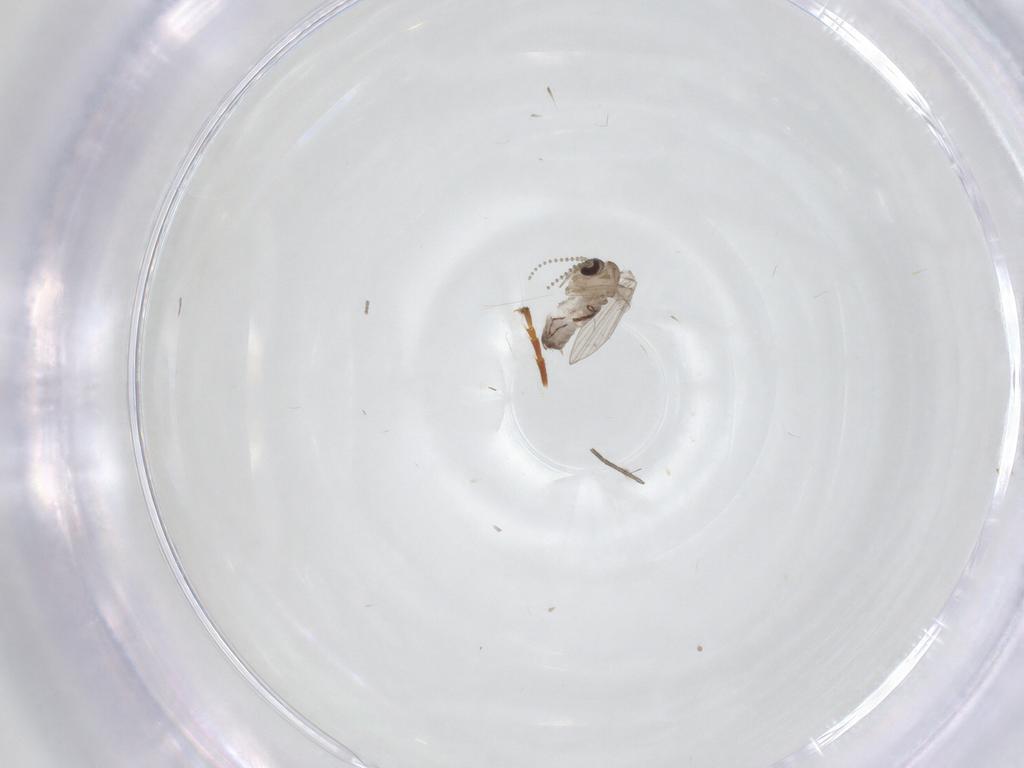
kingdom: Animalia
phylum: Arthropoda
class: Insecta
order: Diptera
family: Psychodidae
